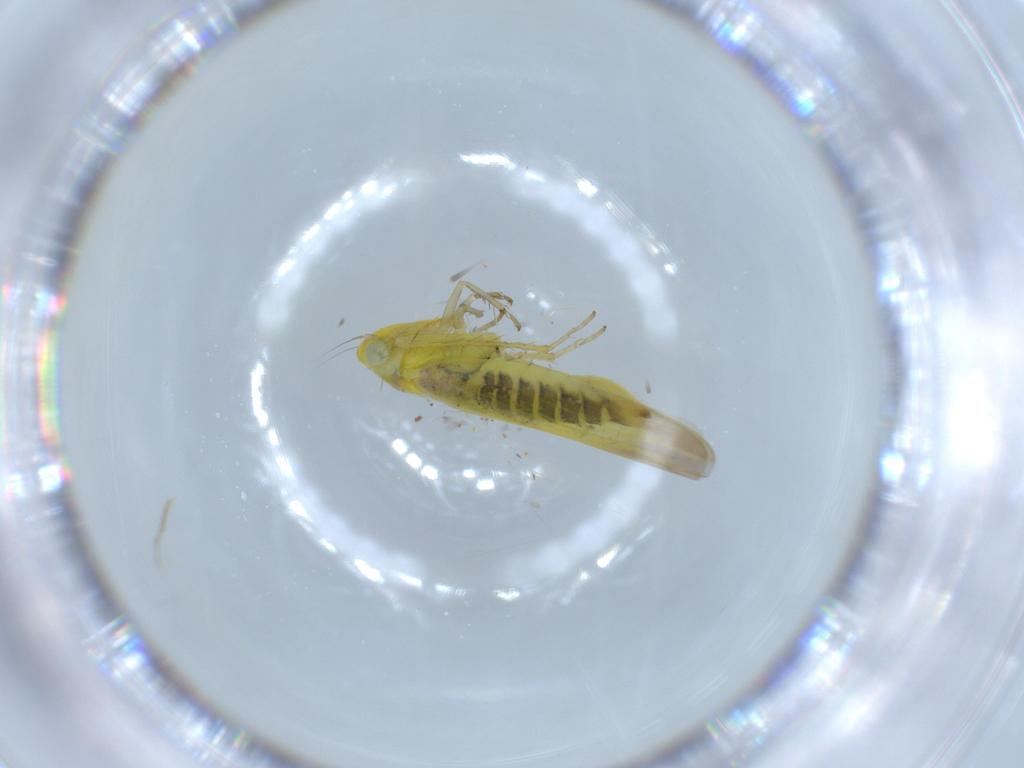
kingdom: Animalia
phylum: Arthropoda
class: Insecta
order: Hemiptera
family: Cicadellidae
